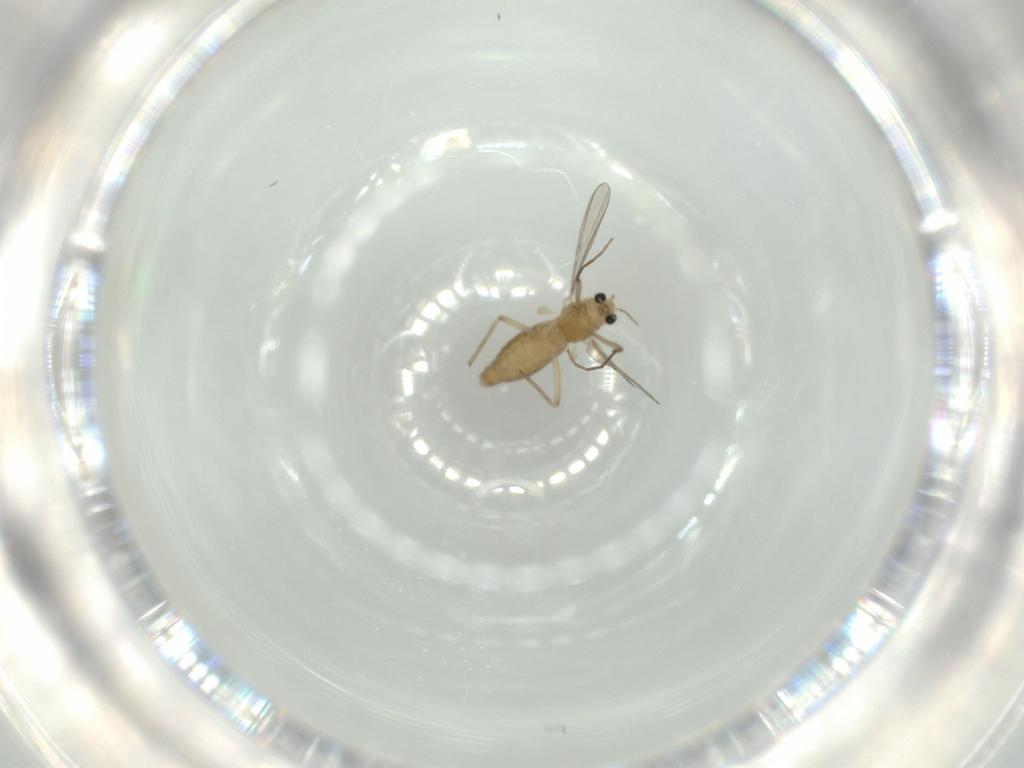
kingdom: Animalia
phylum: Arthropoda
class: Insecta
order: Diptera
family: Chironomidae
